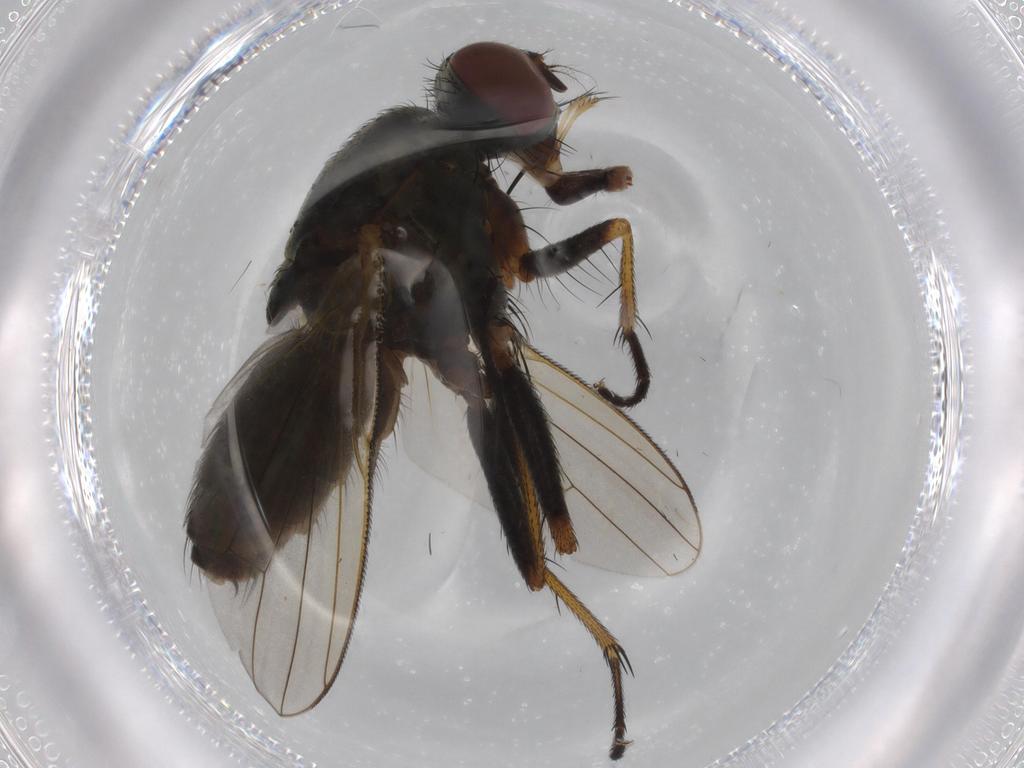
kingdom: Animalia
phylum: Arthropoda
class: Insecta
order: Diptera
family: Muscidae
